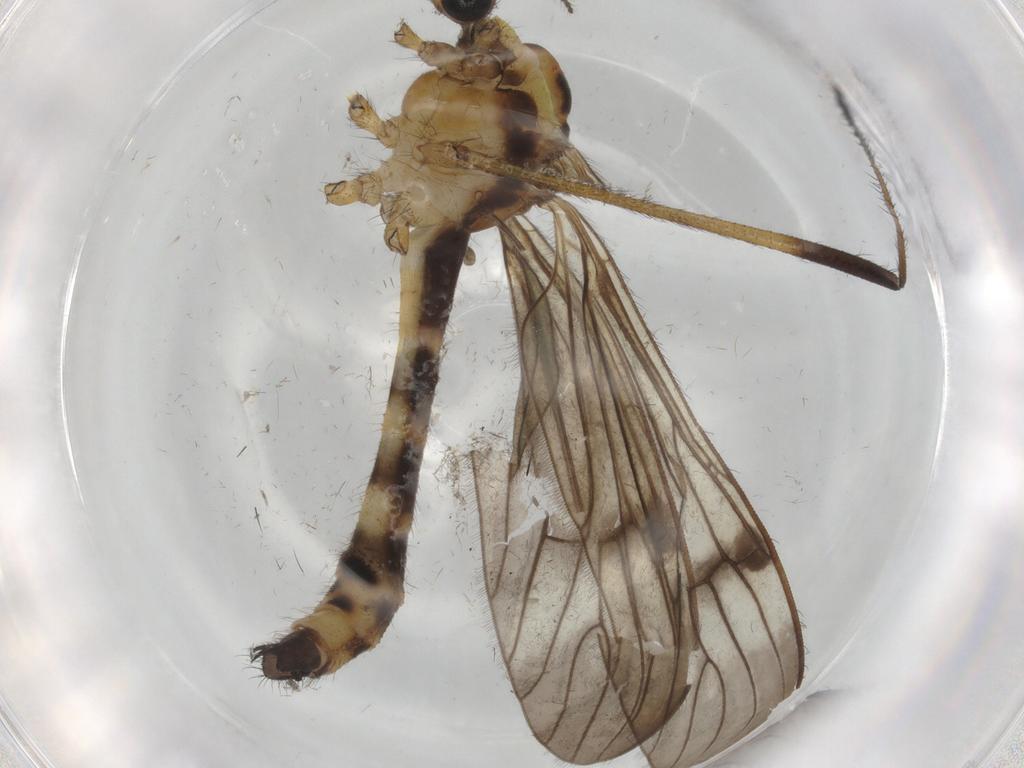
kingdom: Animalia
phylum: Arthropoda
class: Insecta
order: Diptera
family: Limoniidae
